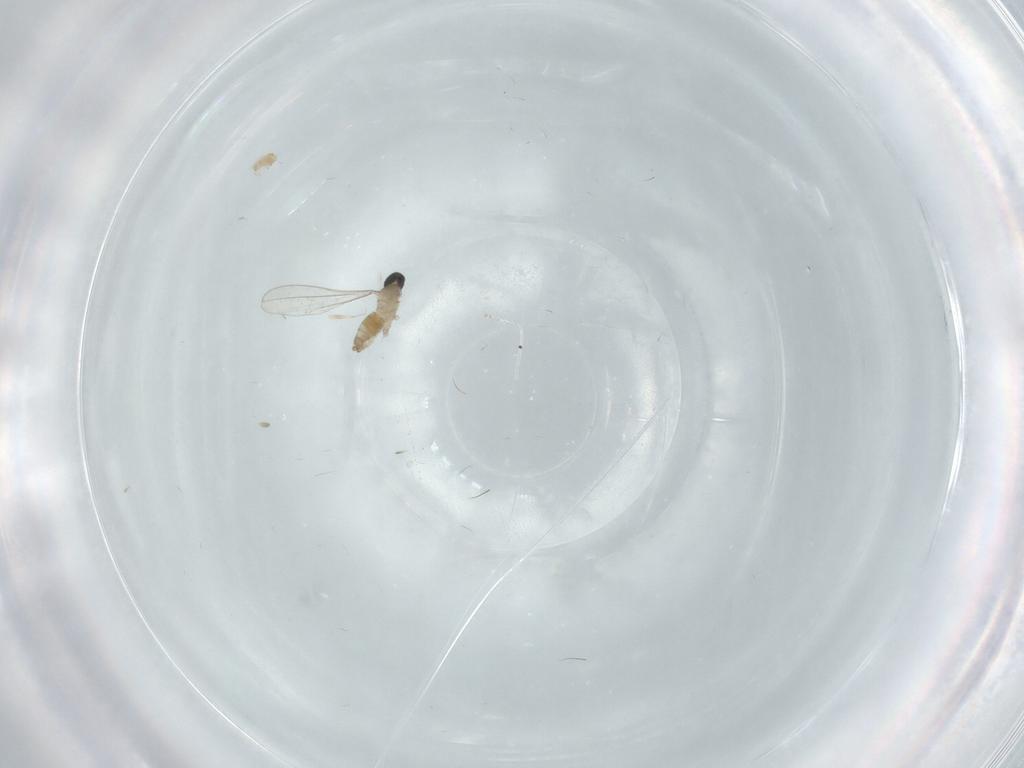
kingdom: Animalia
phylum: Arthropoda
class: Insecta
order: Diptera
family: Cecidomyiidae
